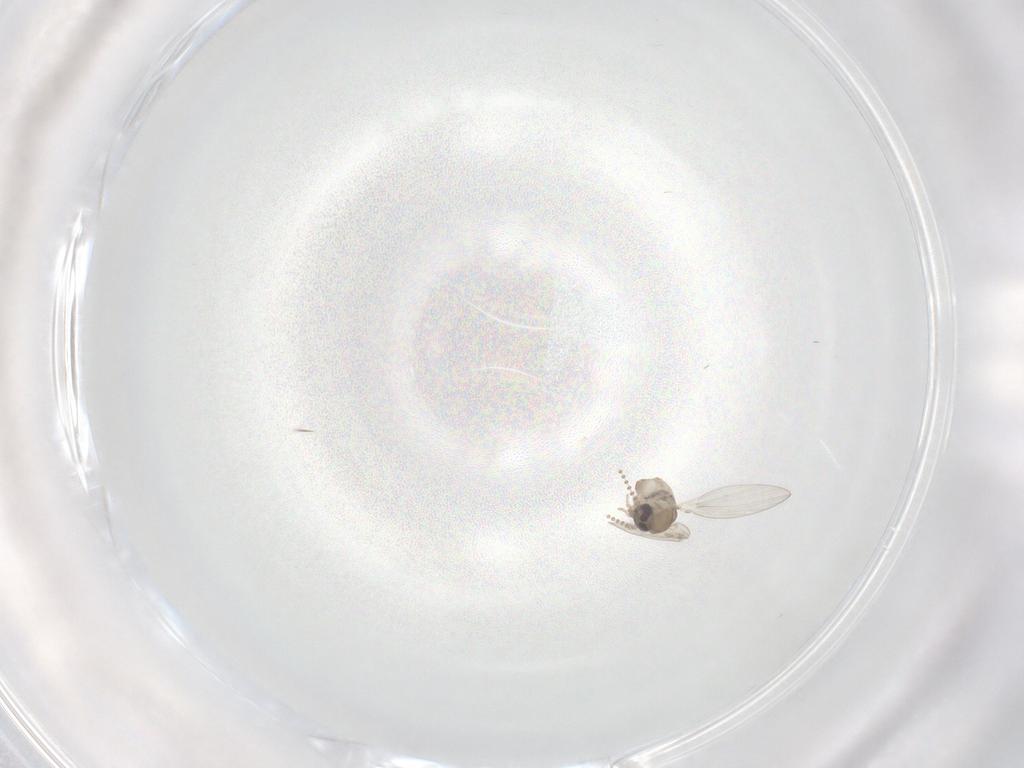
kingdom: Animalia
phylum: Arthropoda
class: Insecta
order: Diptera
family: Psychodidae
